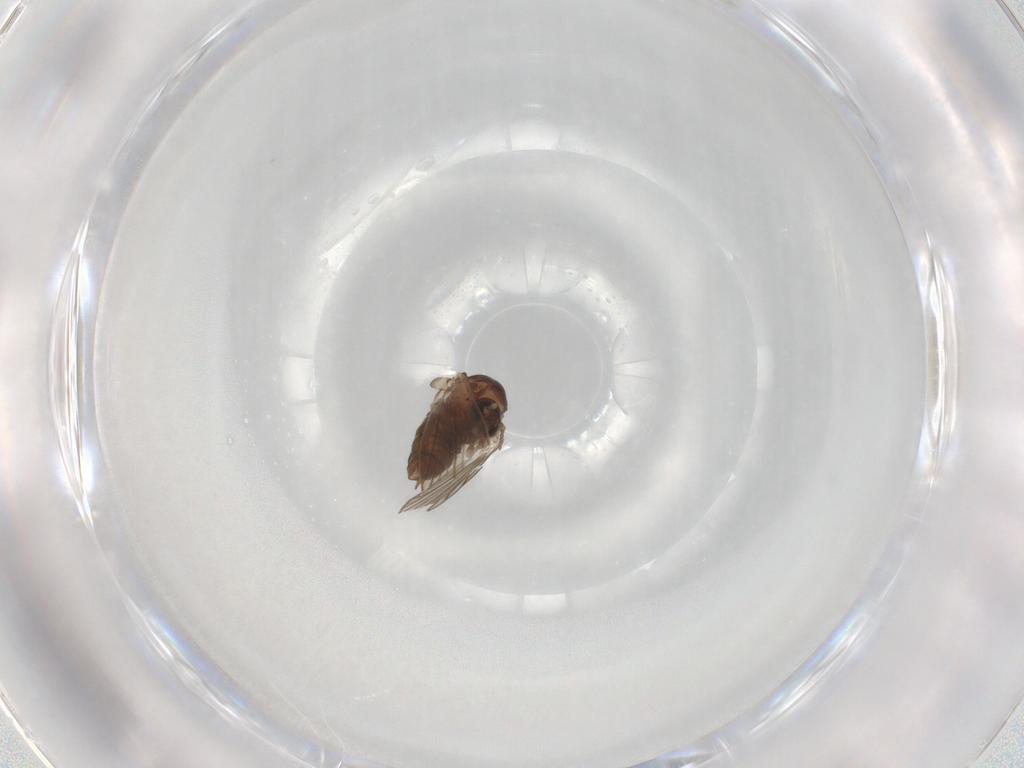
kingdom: Animalia
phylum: Arthropoda
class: Insecta
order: Diptera
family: Psychodidae
